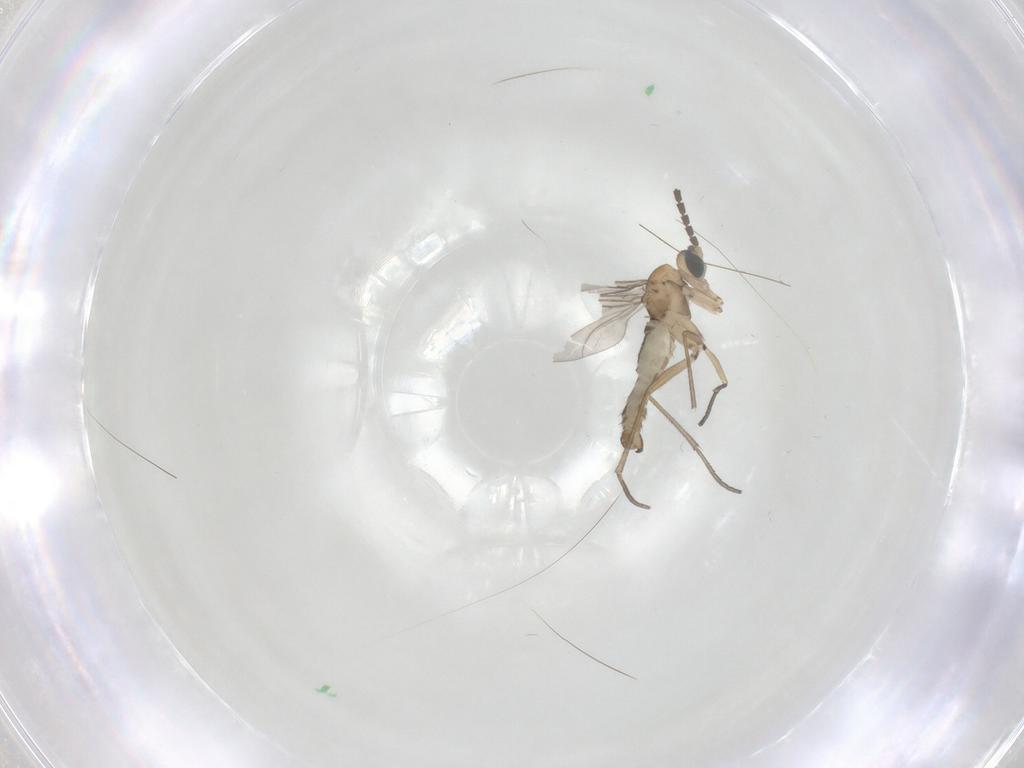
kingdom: Animalia
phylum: Arthropoda
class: Insecta
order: Diptera
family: Sciaridae
